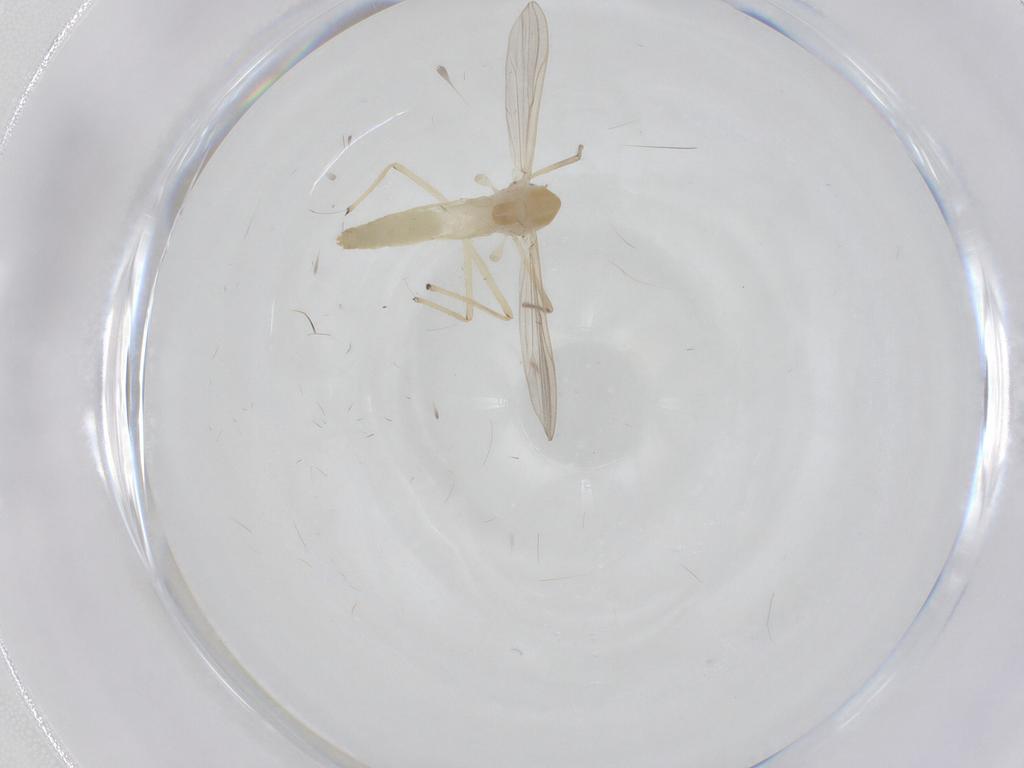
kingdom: Animalia
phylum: Arthropoda
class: Insecta
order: Diptera
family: Chironomidae
